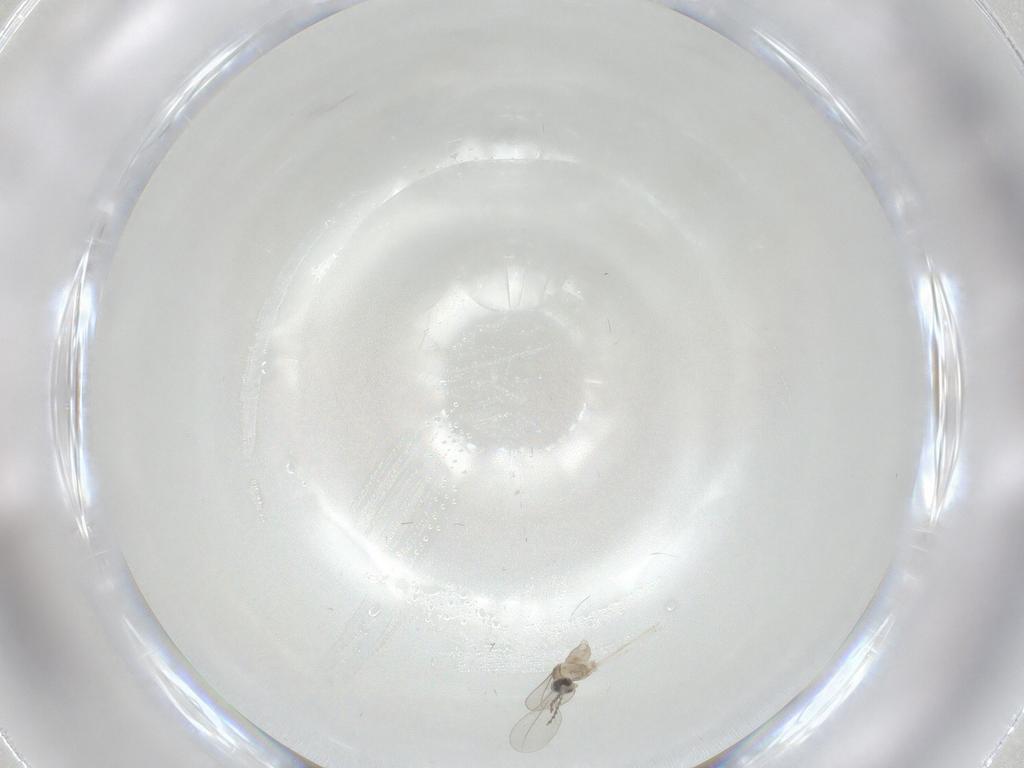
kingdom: Animalia
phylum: Arthropoda
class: Insecta
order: Diptera
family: Cecidomyiidae
